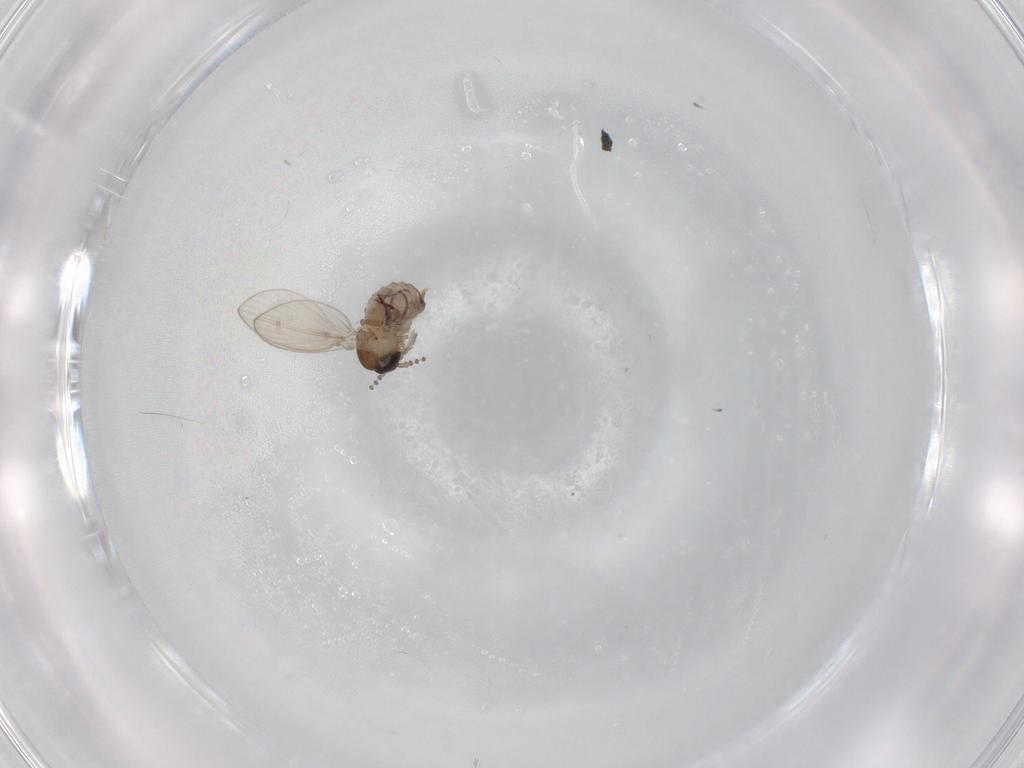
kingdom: Animalia
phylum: Arthropoda
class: Insecta
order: Diptera
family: Psychodidae
